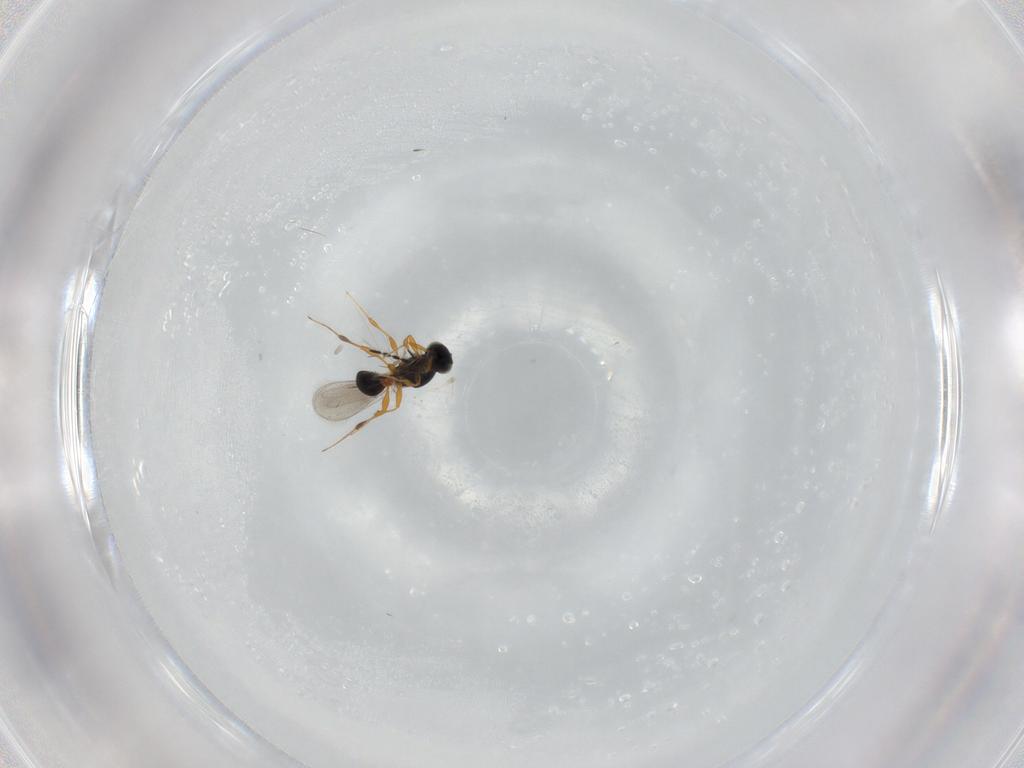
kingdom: Animalia
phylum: Arthropoda
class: Insecta
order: Hymenoptera
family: Platygastridae
